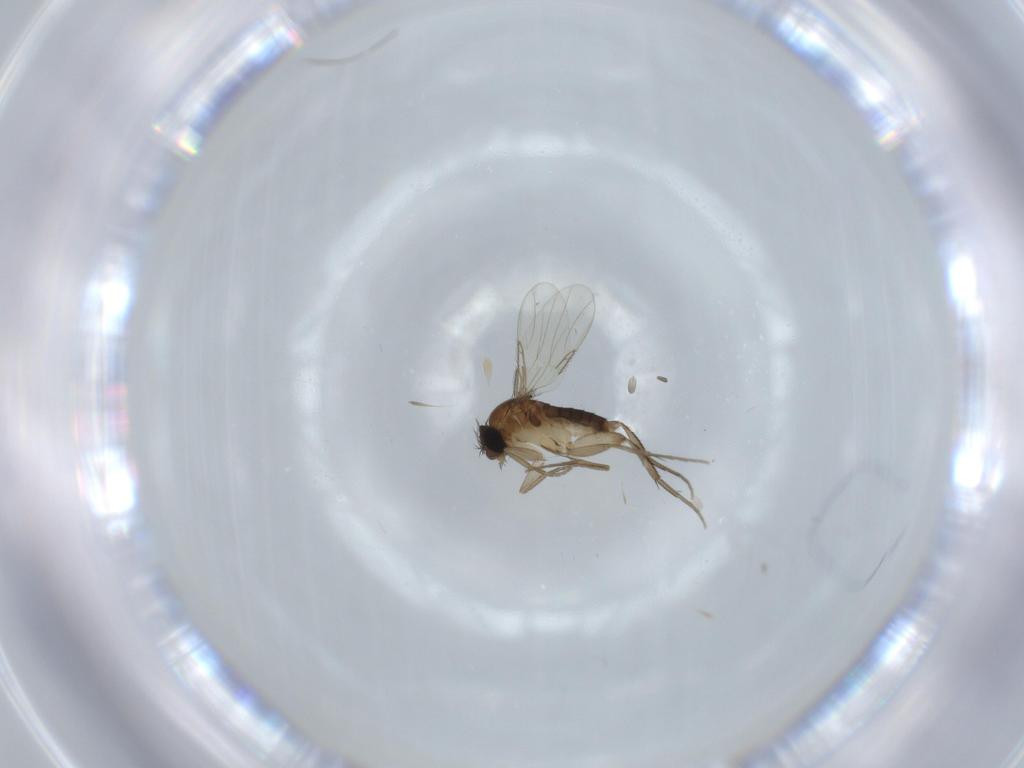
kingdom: Animalia
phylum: Arthropoda
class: Insecta
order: Diptera
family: Phoridae
